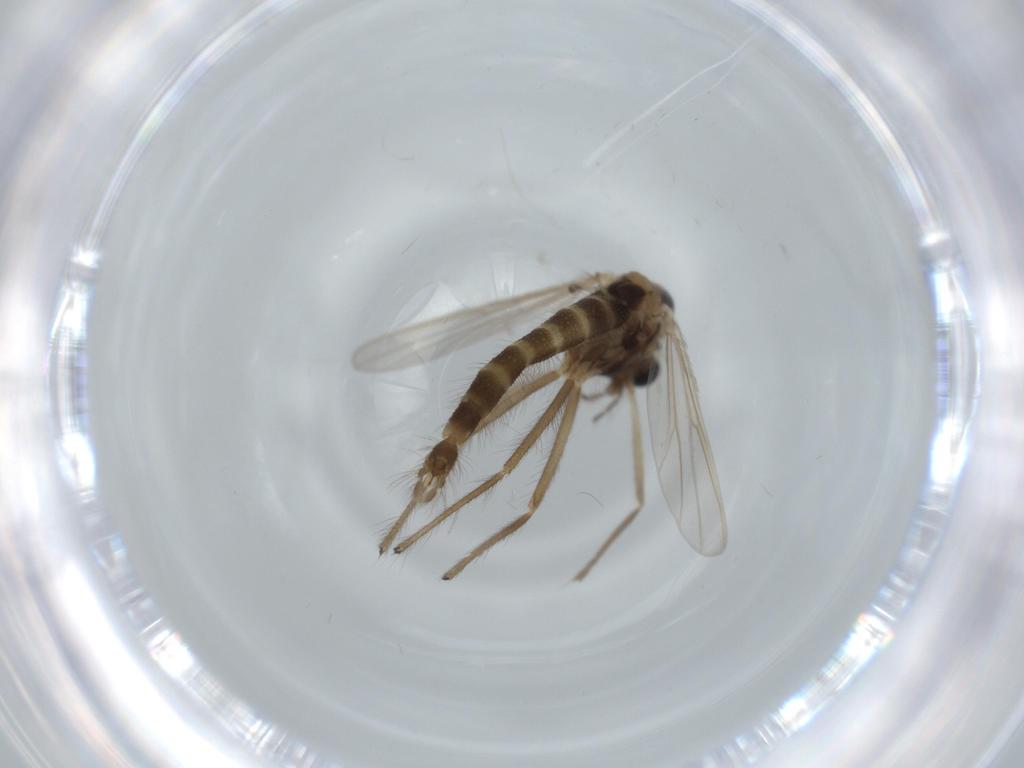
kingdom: Animalia
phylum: Arthropoda
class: Insecta
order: Diptera
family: Chironomidae
